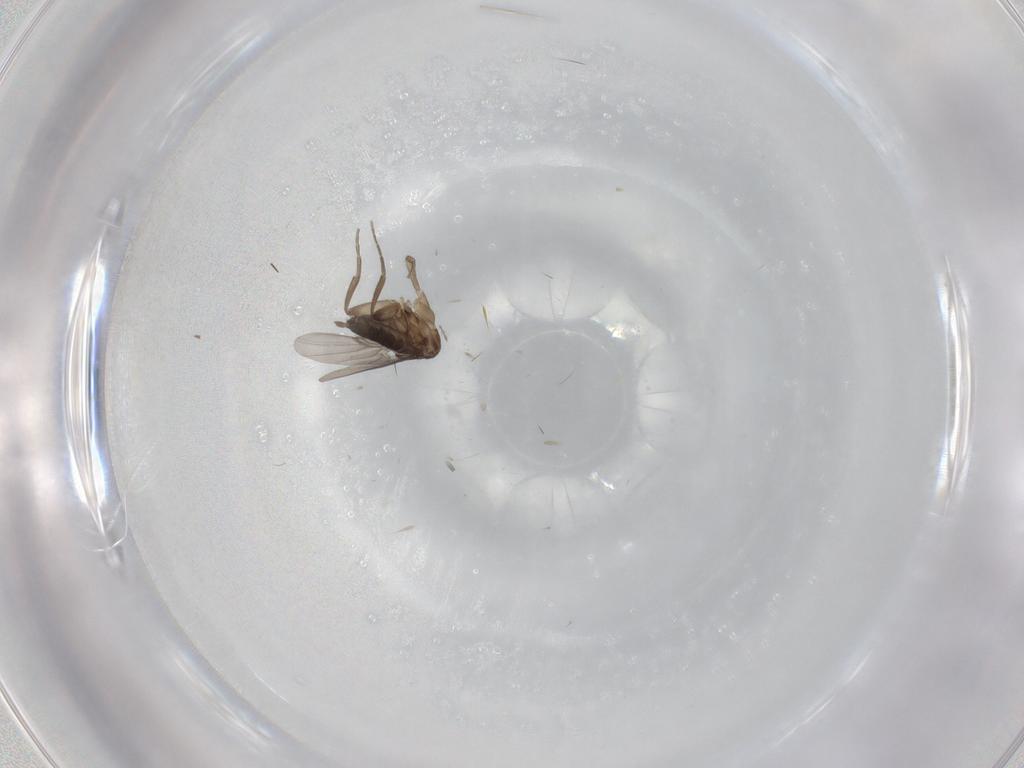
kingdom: Animalia
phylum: Arthropoda
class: Insecta
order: Diptera
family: Phoridae
